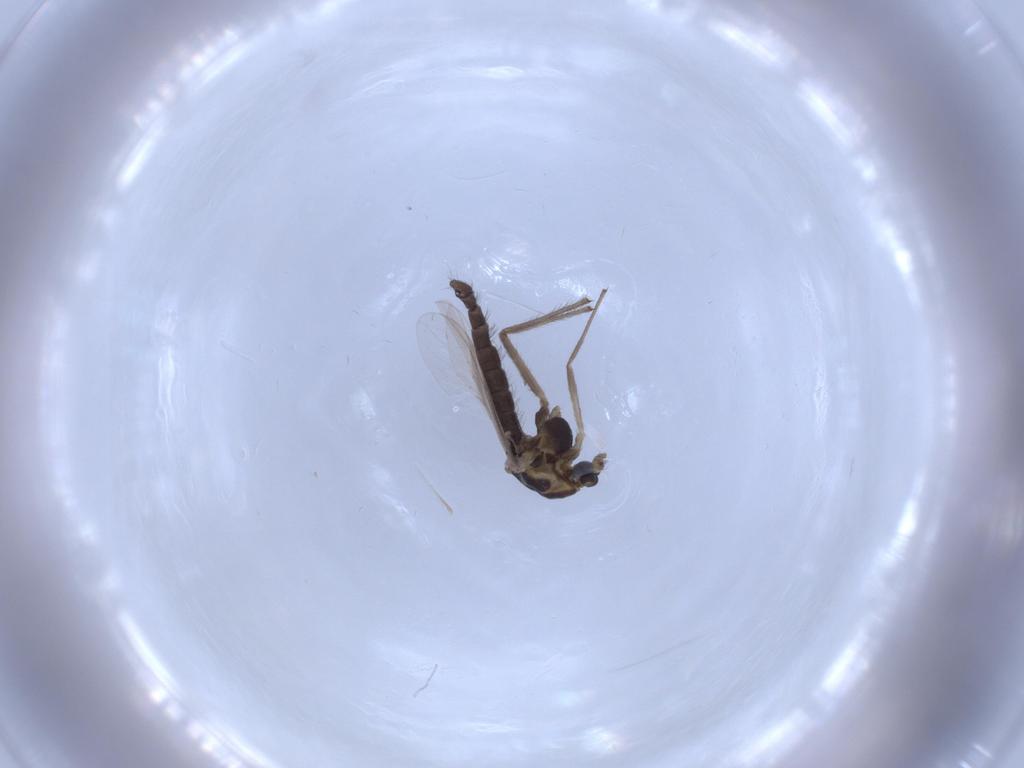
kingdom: Animalia
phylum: Arthropoda
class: Insecta
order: Diptera
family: Chironomidae
